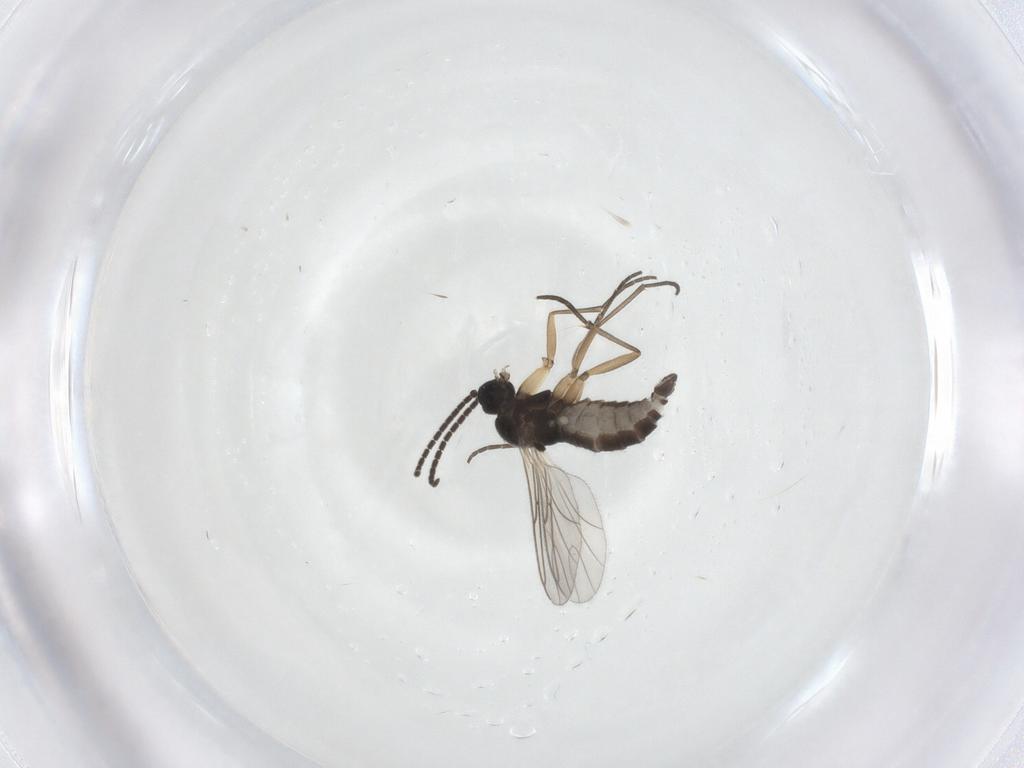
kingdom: Animalia
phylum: Arthropoda
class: Insecta
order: Diptera
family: Sciaridae
